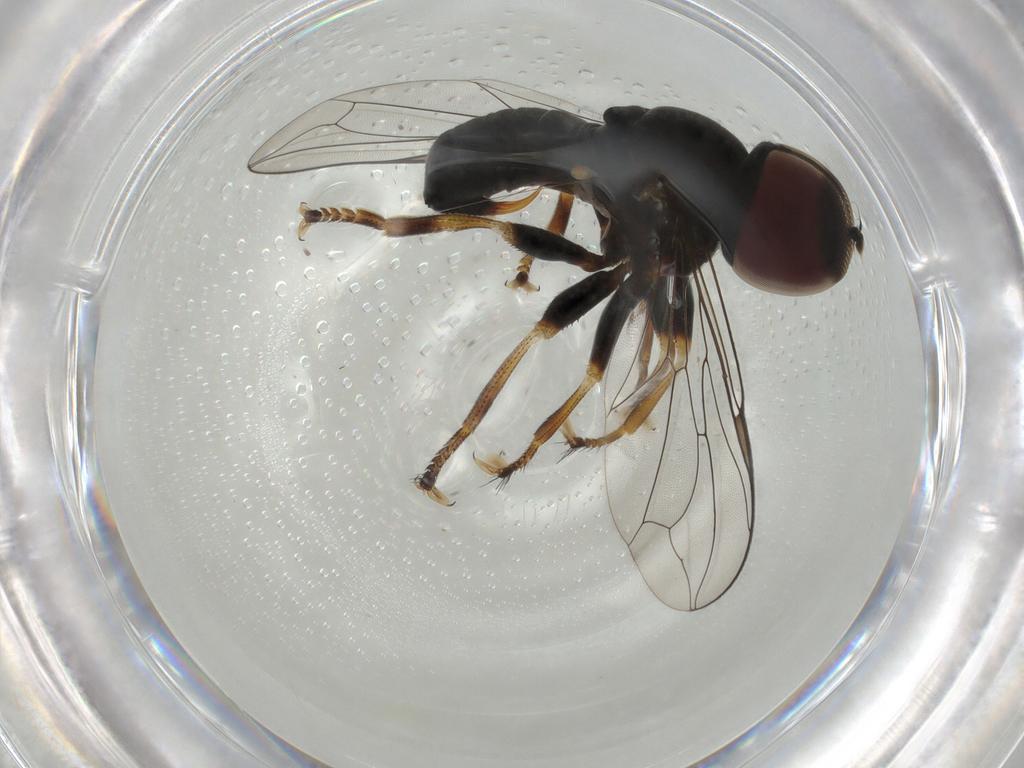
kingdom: Animalia
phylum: Arthropoda
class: Insecta
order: Diptera
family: Pipunculidae
